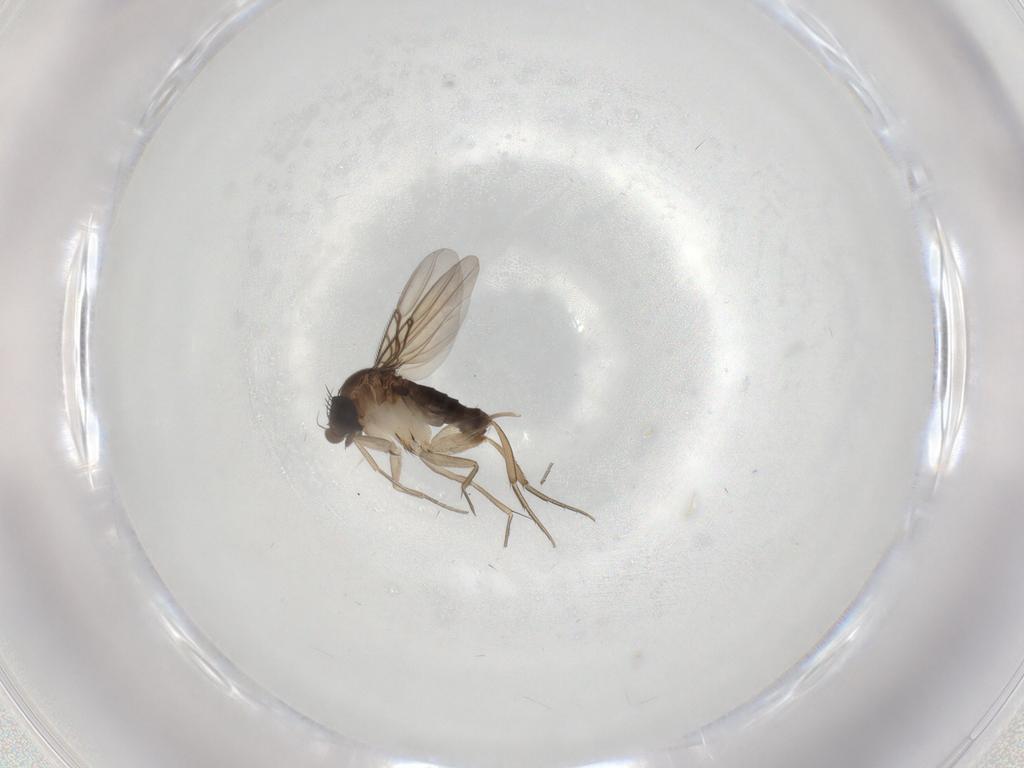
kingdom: Animalia
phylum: Arthropoda
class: Insecta
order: Diptera
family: Phoridae
